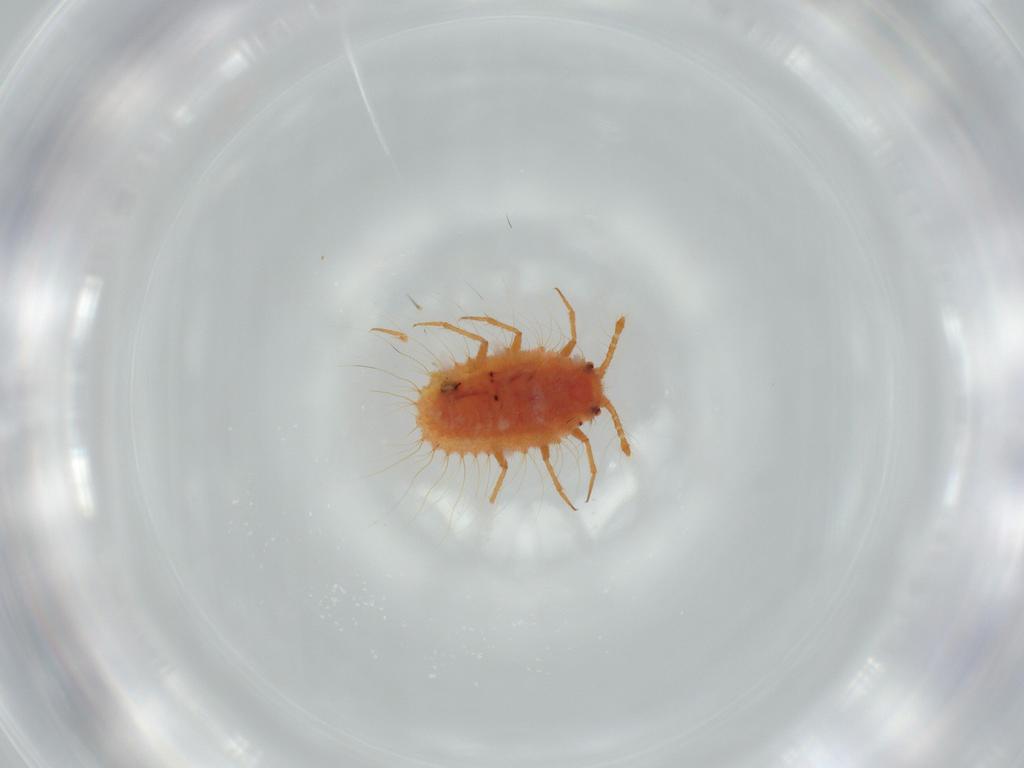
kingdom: Animalia
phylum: Arthropoda
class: Insecta
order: Hemiptera
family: Coccoidea_incertae_sedis
